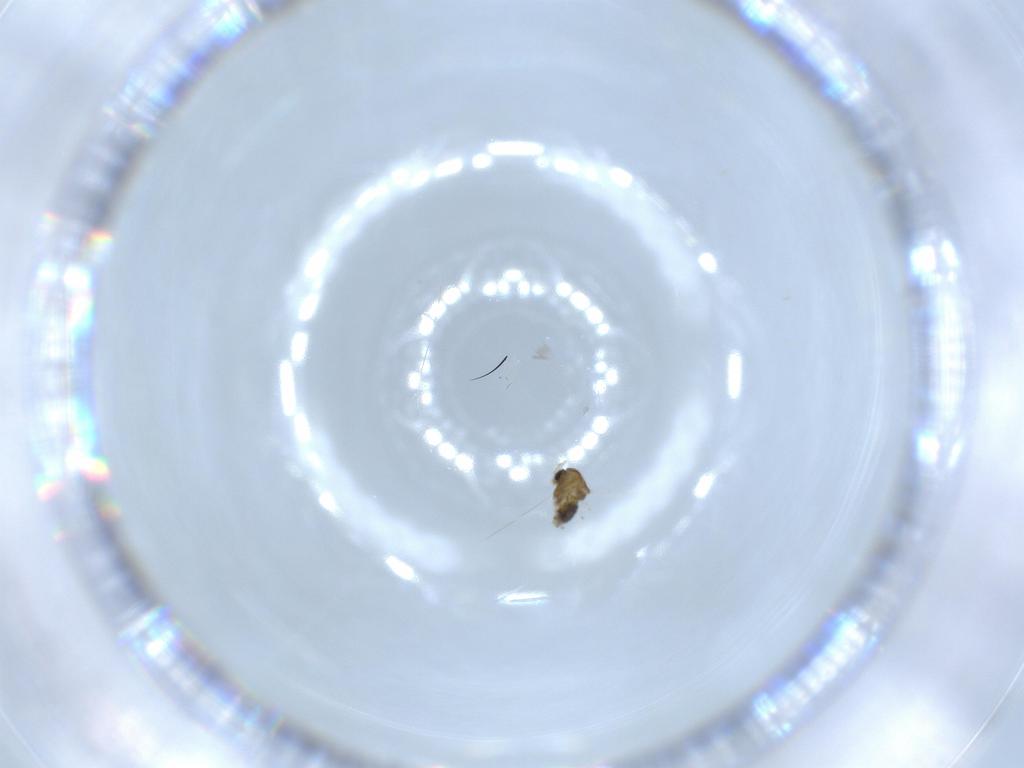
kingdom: Animalia
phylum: Arthropoda
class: Insecta
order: Diptera
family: Chironomidae
